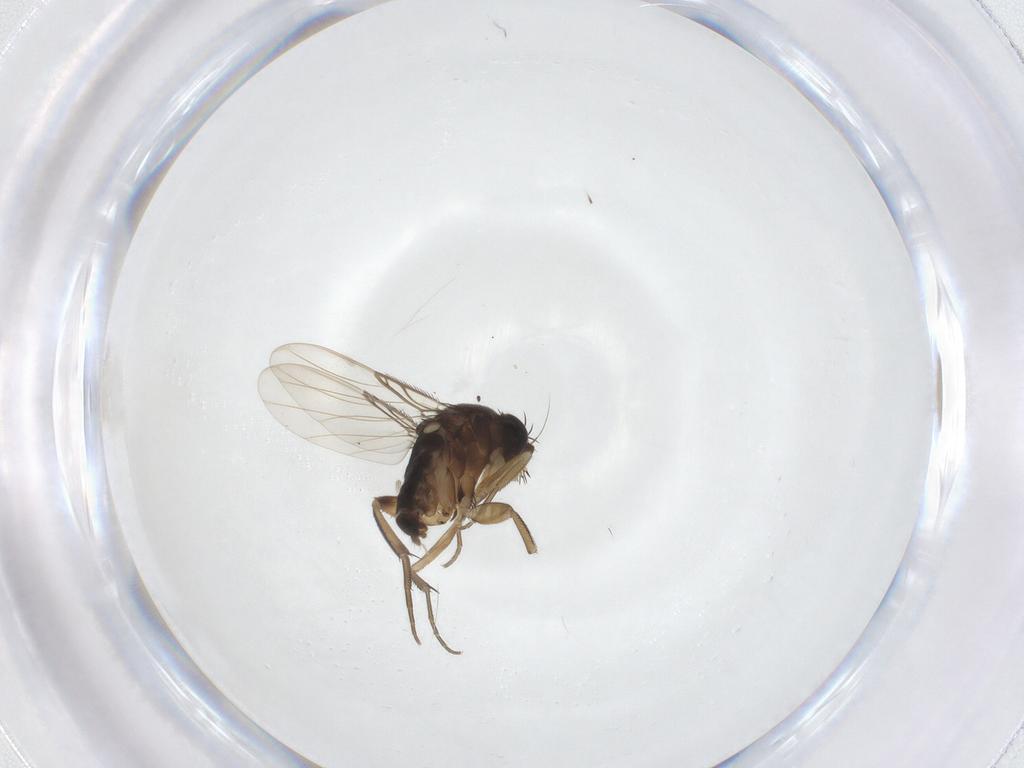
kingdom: Animalia
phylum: Arthropoda
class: Insecta
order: Diptera
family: Phoridae
